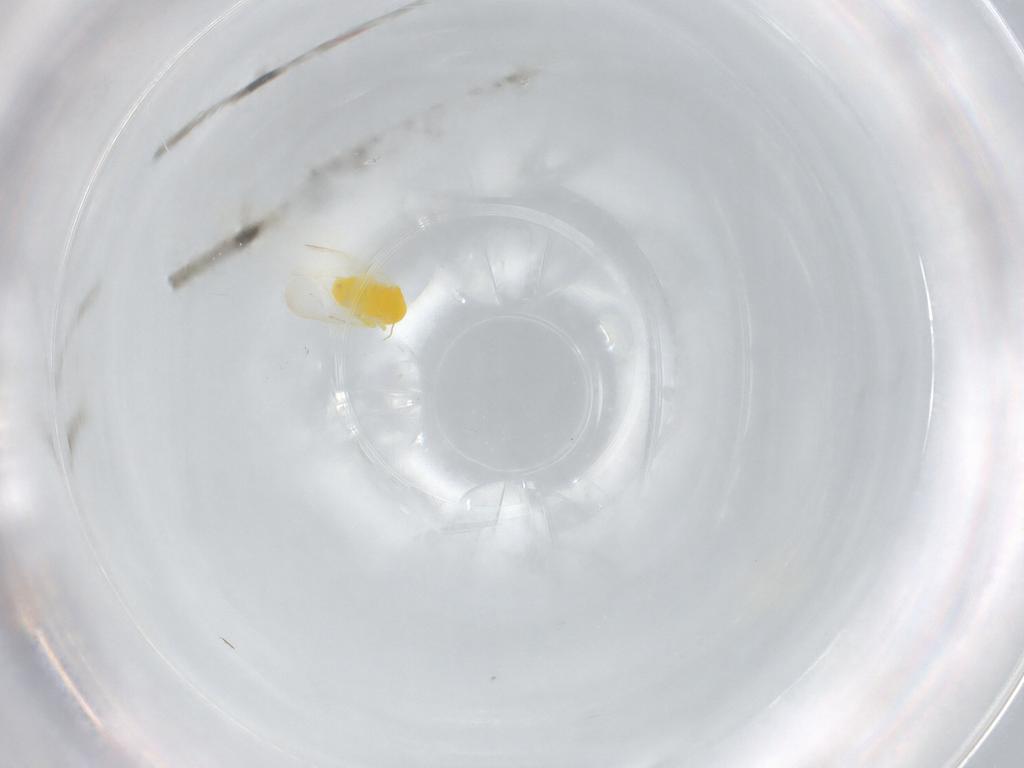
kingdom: Animalia
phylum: Arthropoda
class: Insecta
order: Hemiptera
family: Aleyrodidae
